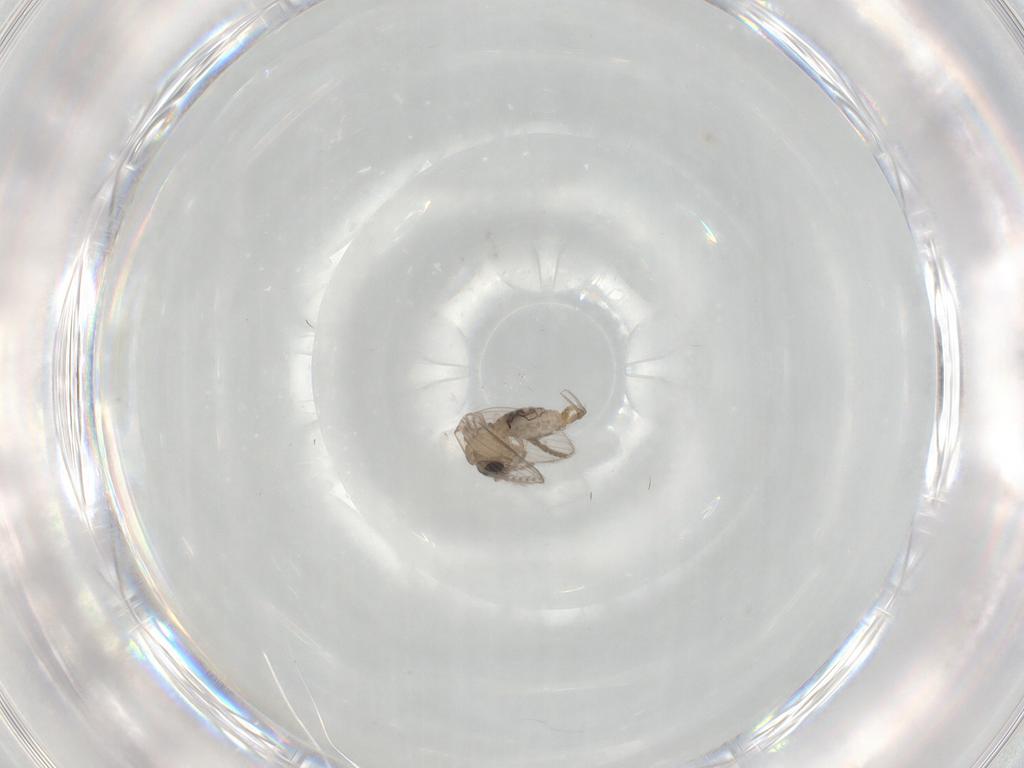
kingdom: Animalia
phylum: Arthropoda
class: Insecta
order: Diptera
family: Psychodidae
